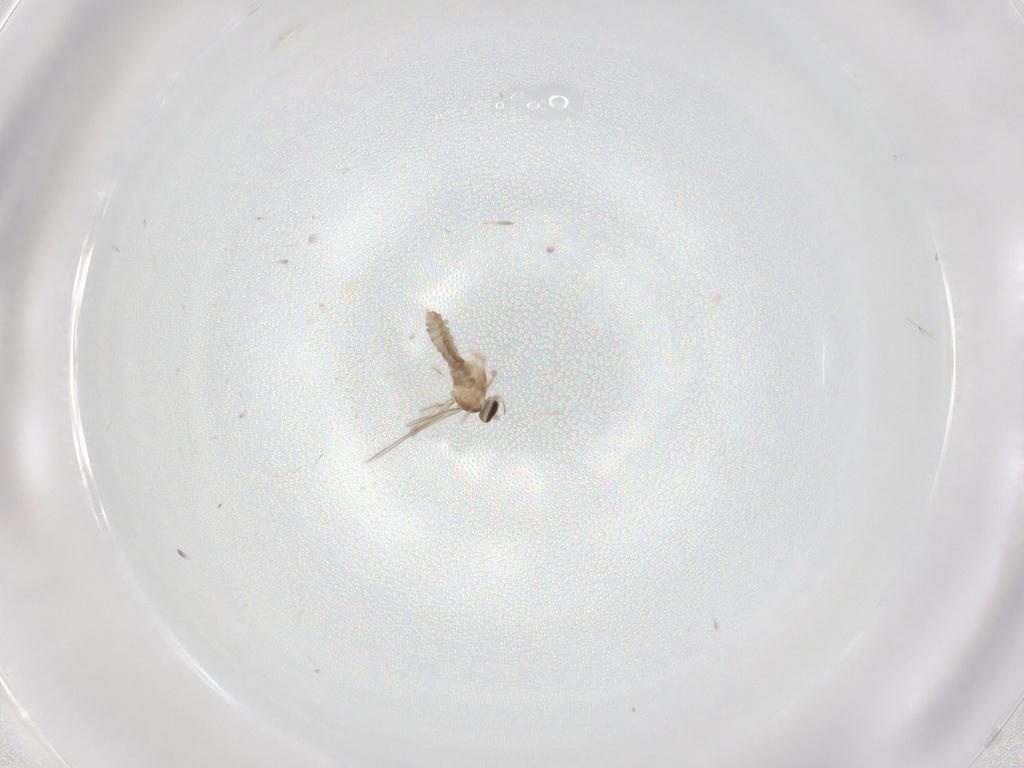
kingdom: Animalia
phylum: Arthropoda
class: Insecta
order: Diptera
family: Cecidomyiidae
